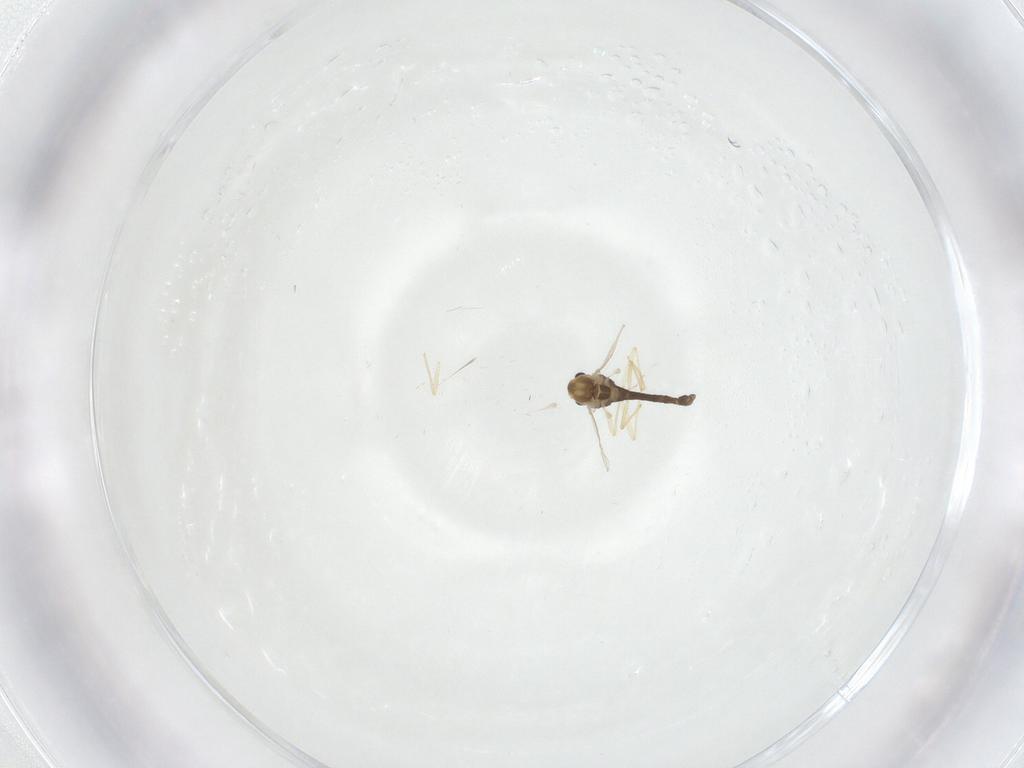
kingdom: Animalia
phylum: Arthropoda
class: Insecta
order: Diptera
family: Chironomidae
